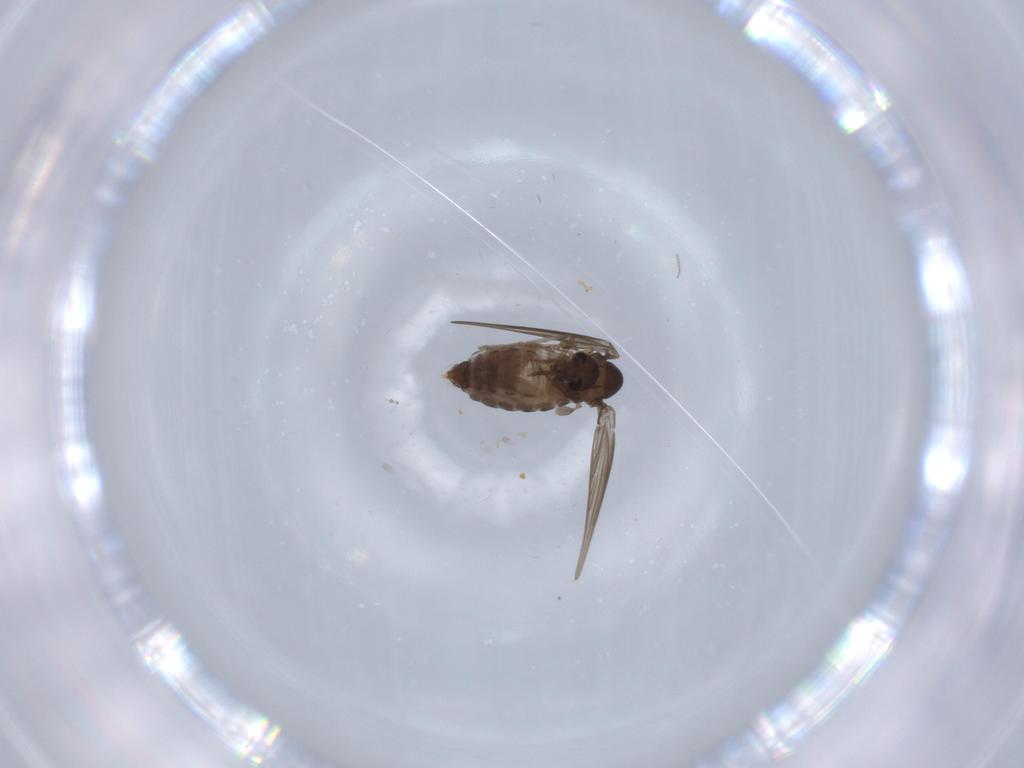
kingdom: Animalia
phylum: Arthropoda
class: Insecta
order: Diptera
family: Psychodidae
